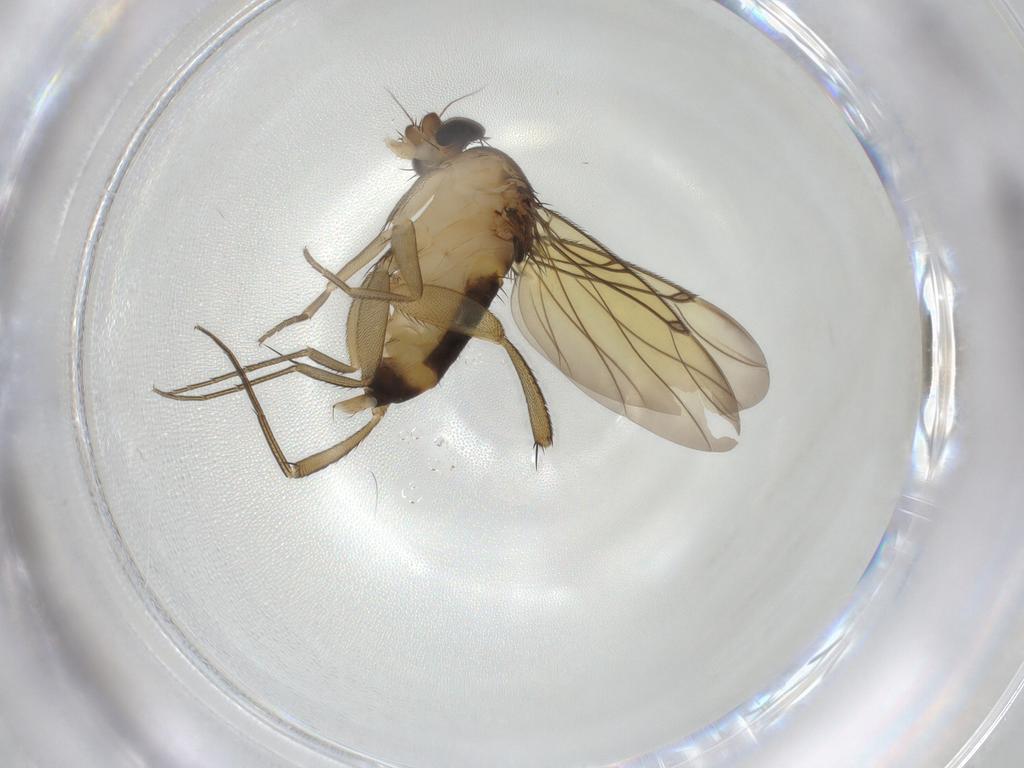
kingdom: Animalia
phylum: Arthropoda
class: Insecta
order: Diptera
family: Phoridae
